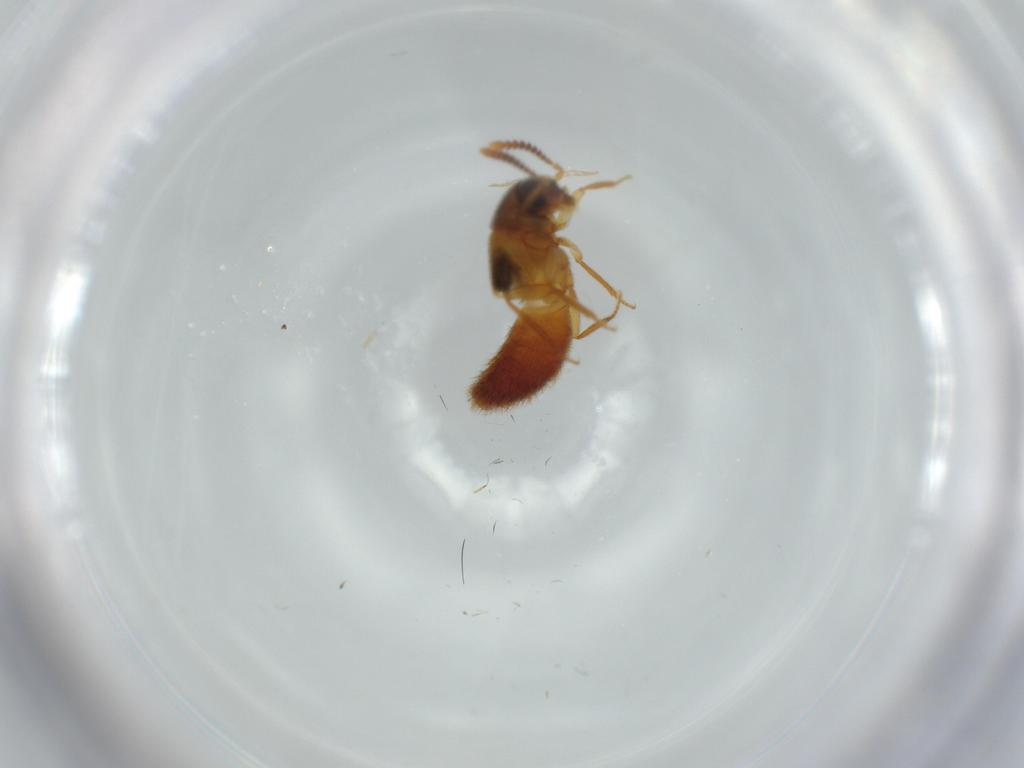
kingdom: Animalia
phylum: Arthropoda
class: Insecta
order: Coleoptera
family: Staphylinidae
